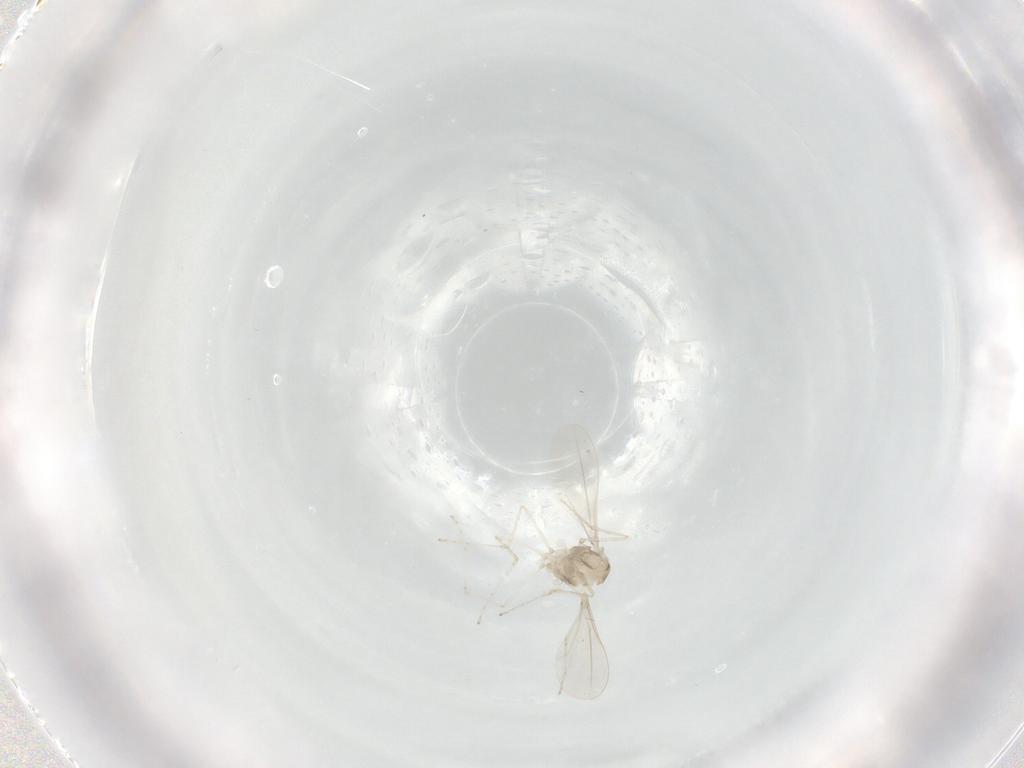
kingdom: Animalia
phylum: Arthropoda
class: Insecta
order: Diptera
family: Cecidomyiidae
